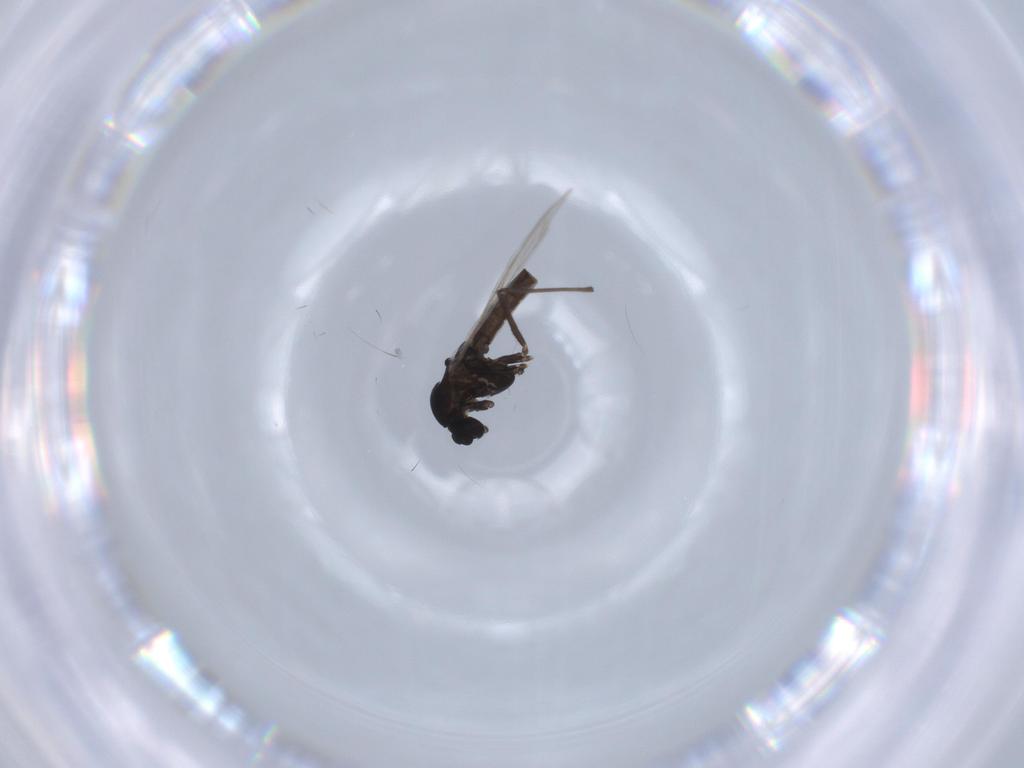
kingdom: Animalia
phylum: Arthropoda
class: Insecta
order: Diptera
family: Chironomidae
